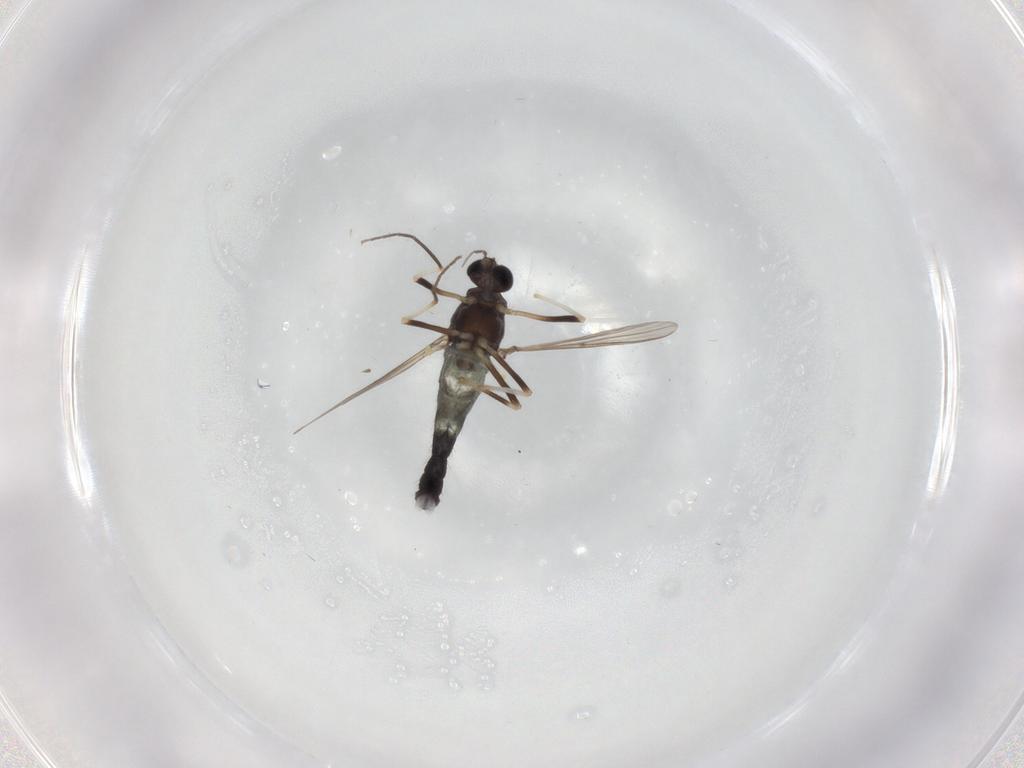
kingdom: Animalia
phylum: Arthropoda
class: Insecta
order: Diptera
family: Chironomidae
